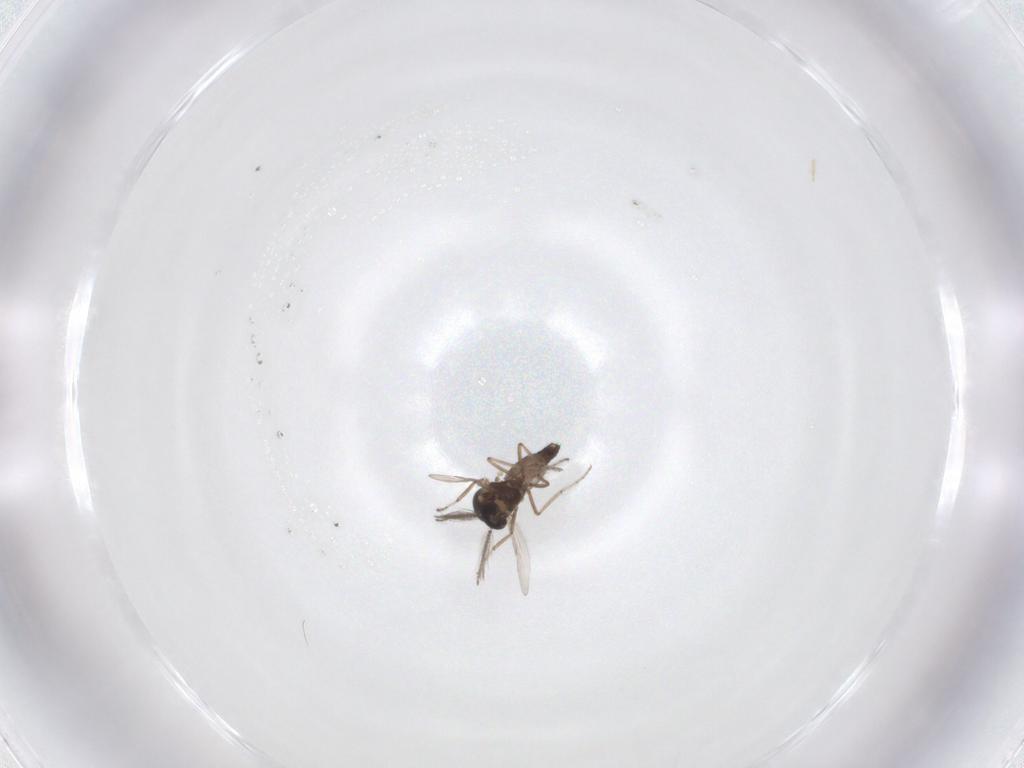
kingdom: Animalia
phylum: Arthropoda
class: Insecta
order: Diptera
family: Ceratopogonidae
